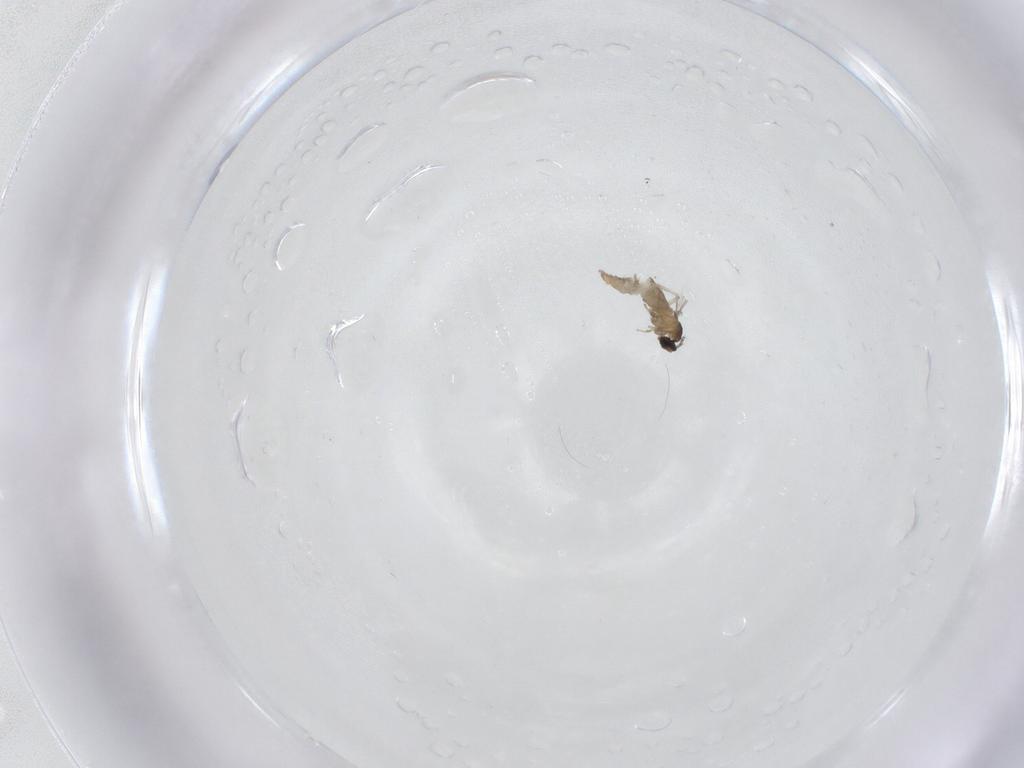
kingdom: Animalia
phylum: Arthropoda
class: Insecta
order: Diptera
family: Cecidomyiidae
